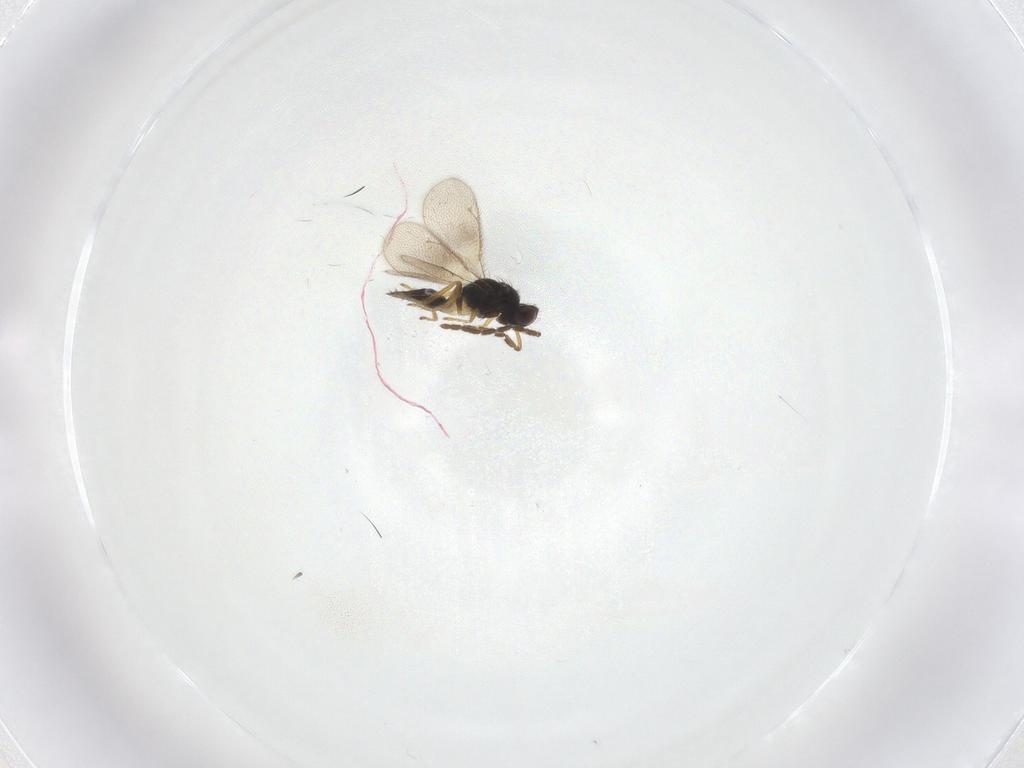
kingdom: Animalia
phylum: Arthropoda
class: Insecta
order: Hymenoptera
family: Eulophidae
